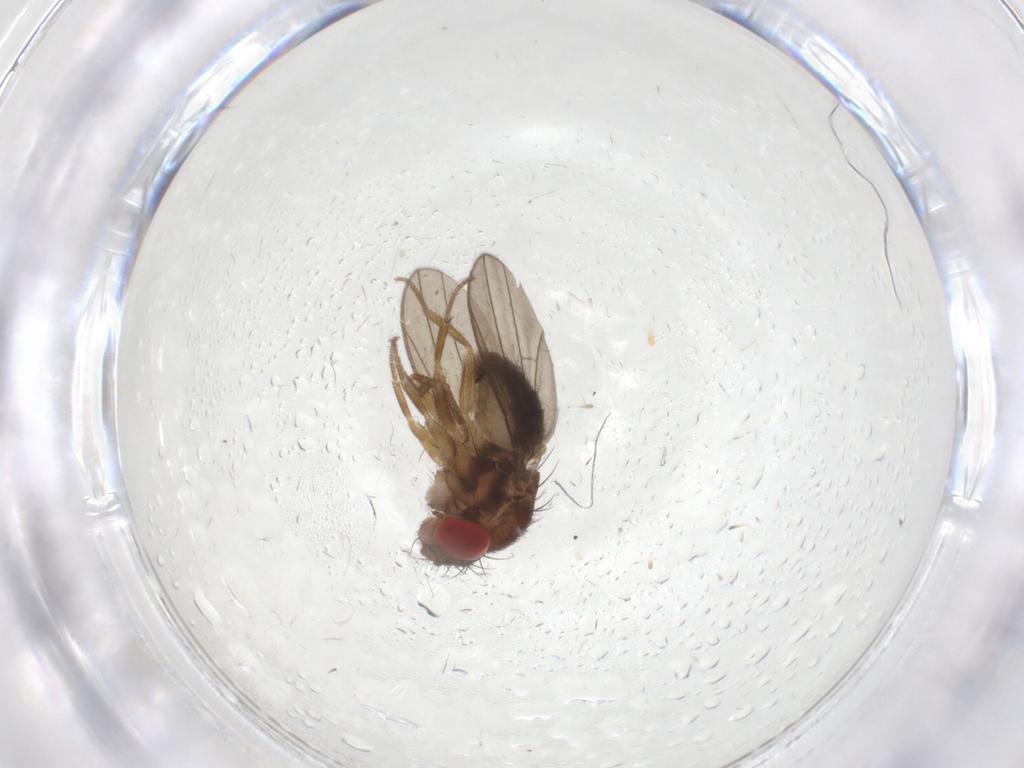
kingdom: Animalia
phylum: Arthropoda
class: Insecta
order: Diptera
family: Drosophilidae
